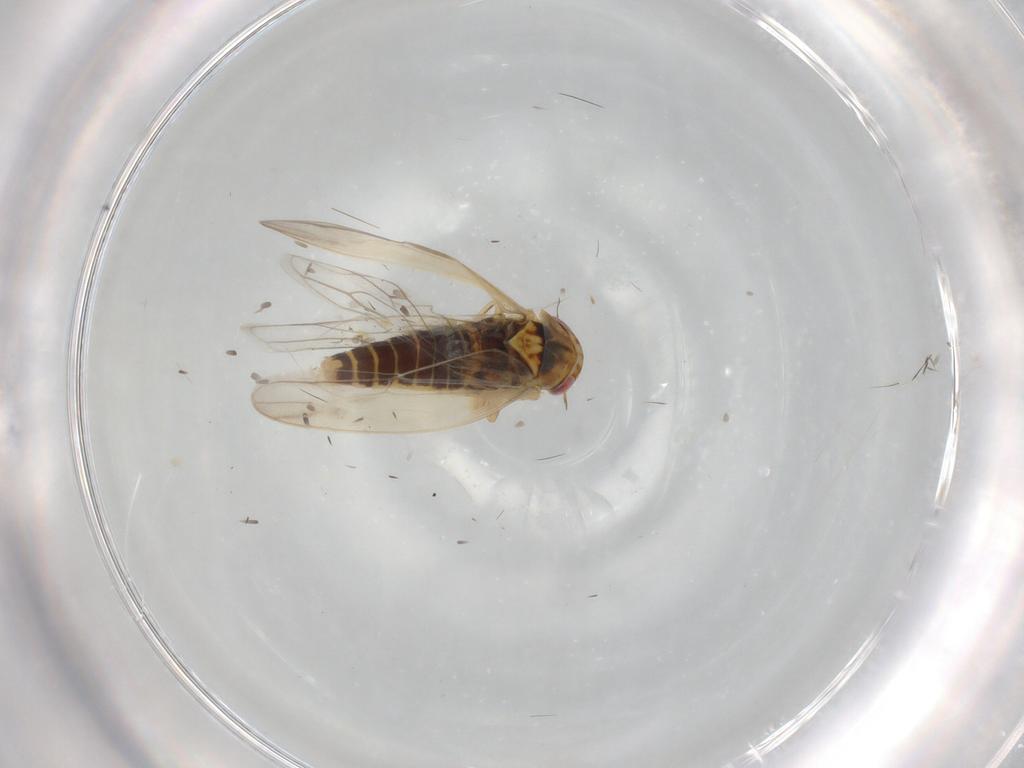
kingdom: Animalia
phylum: Arthropoda
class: Insecta
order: Hemiptera
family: Cicadellidae
